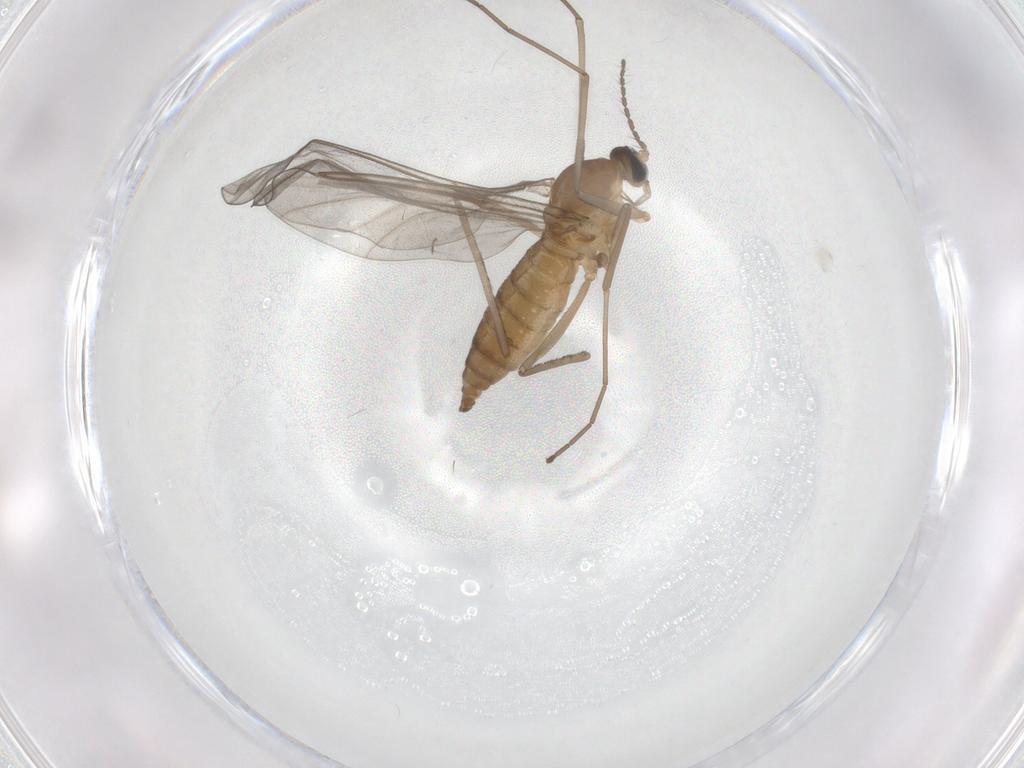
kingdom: Animalia
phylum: Arthropoda
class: Insecta
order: Diptera
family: Cecidomyiidae
